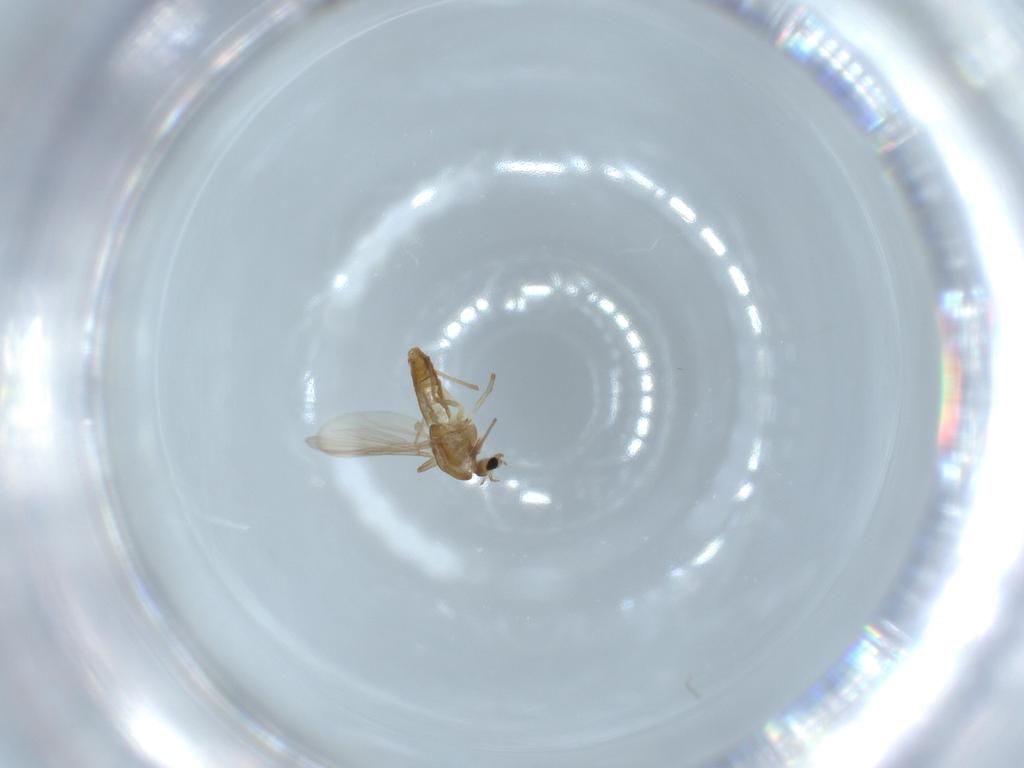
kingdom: Animalia
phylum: Arthropoda
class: Insecta
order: Diptera
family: Chironomidae
